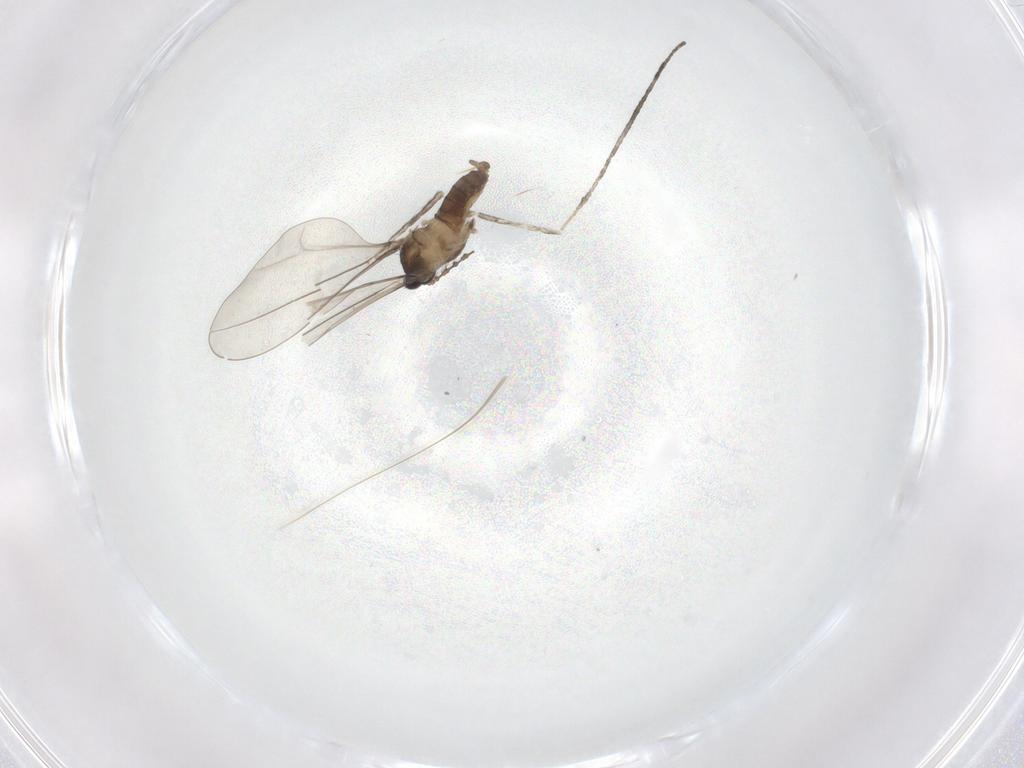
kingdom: Animalia
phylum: Arthropoda
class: Insecta
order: Diptera
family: Cecidomyiidae
